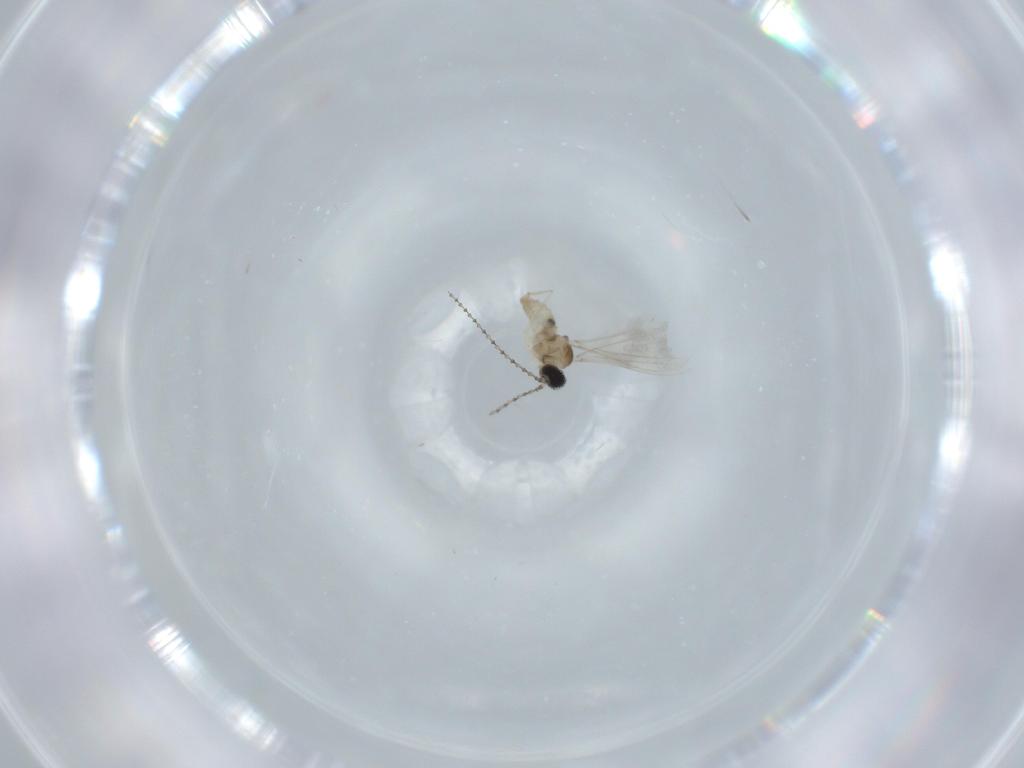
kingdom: Animalia
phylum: Arthropoda
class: Insecta
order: Diptera
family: Cecidomyiidae
